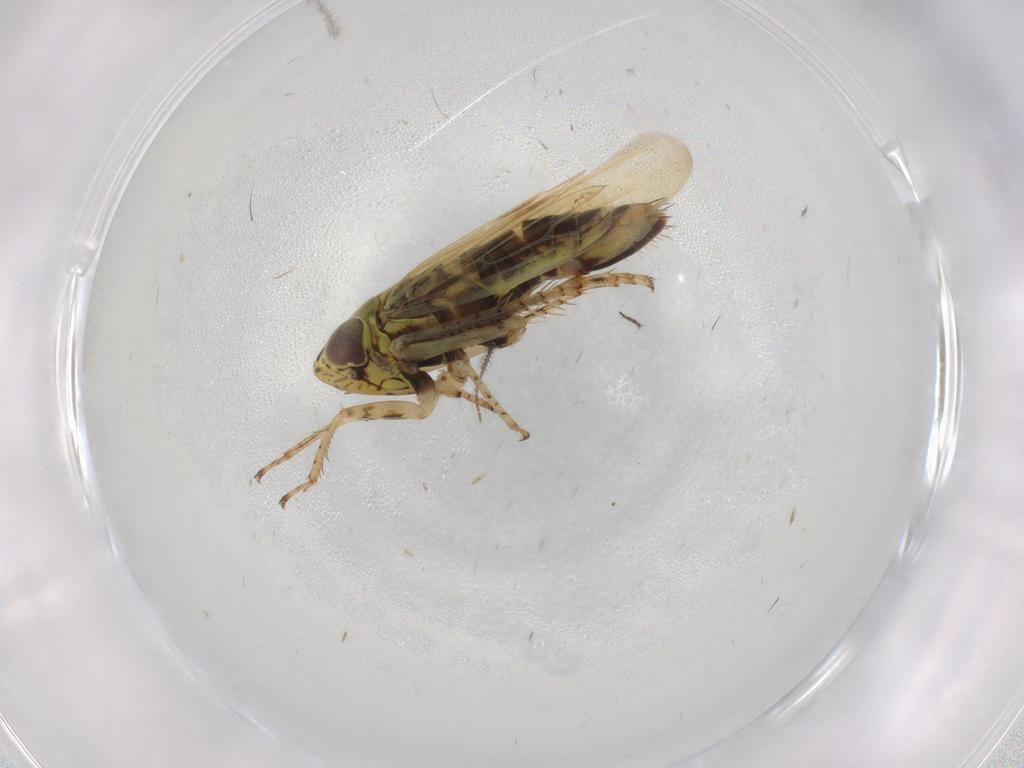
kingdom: Animalia
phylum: Arthropoda
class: Insecta
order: Hemiptera
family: Cicadellidae
